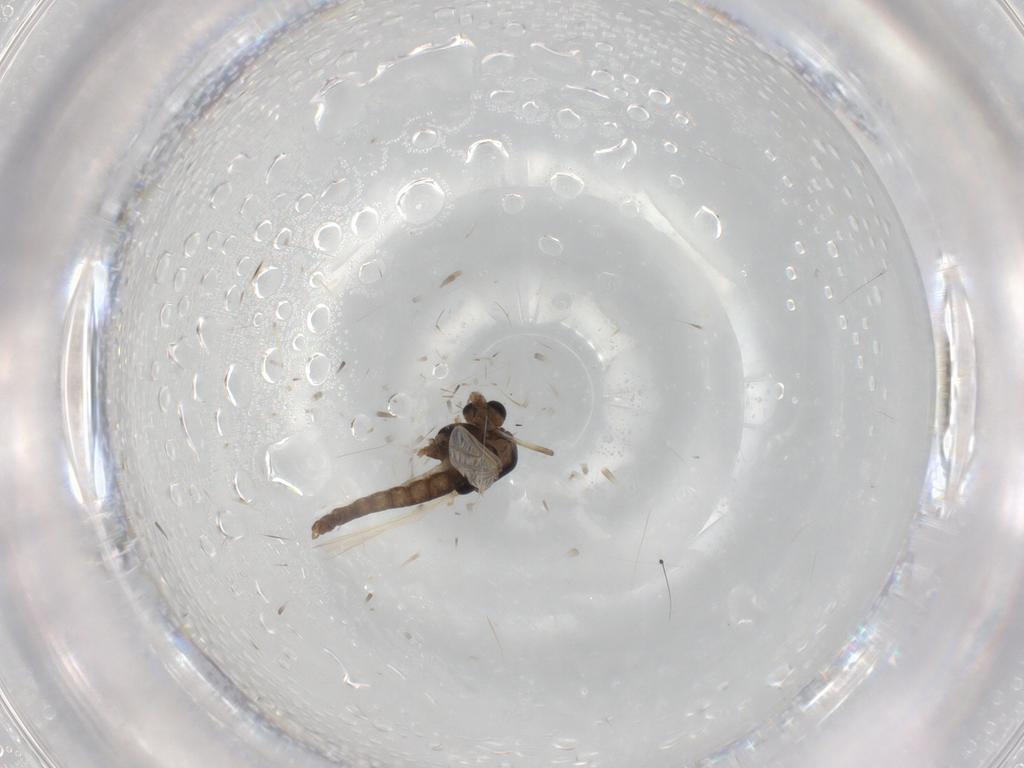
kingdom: Animalia
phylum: Arthropoda
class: Insecta
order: Diptera
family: Chironomidae
